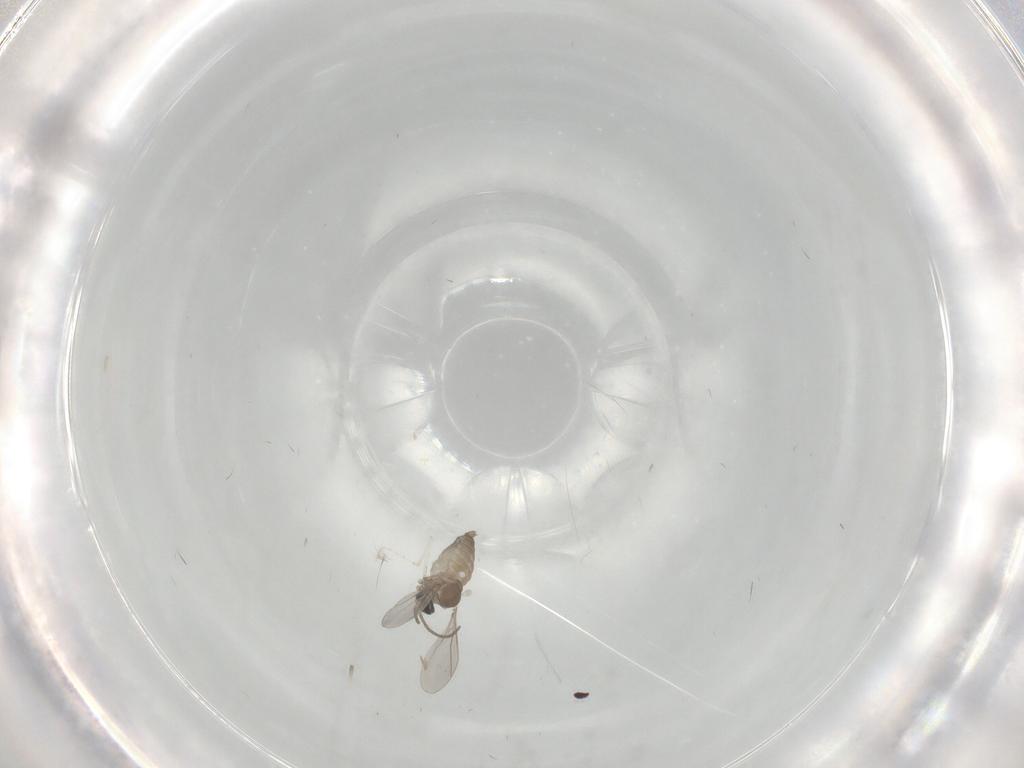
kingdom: Animalia
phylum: Arthropoda
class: Insecta
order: Diptera
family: Cecidomyiidae
